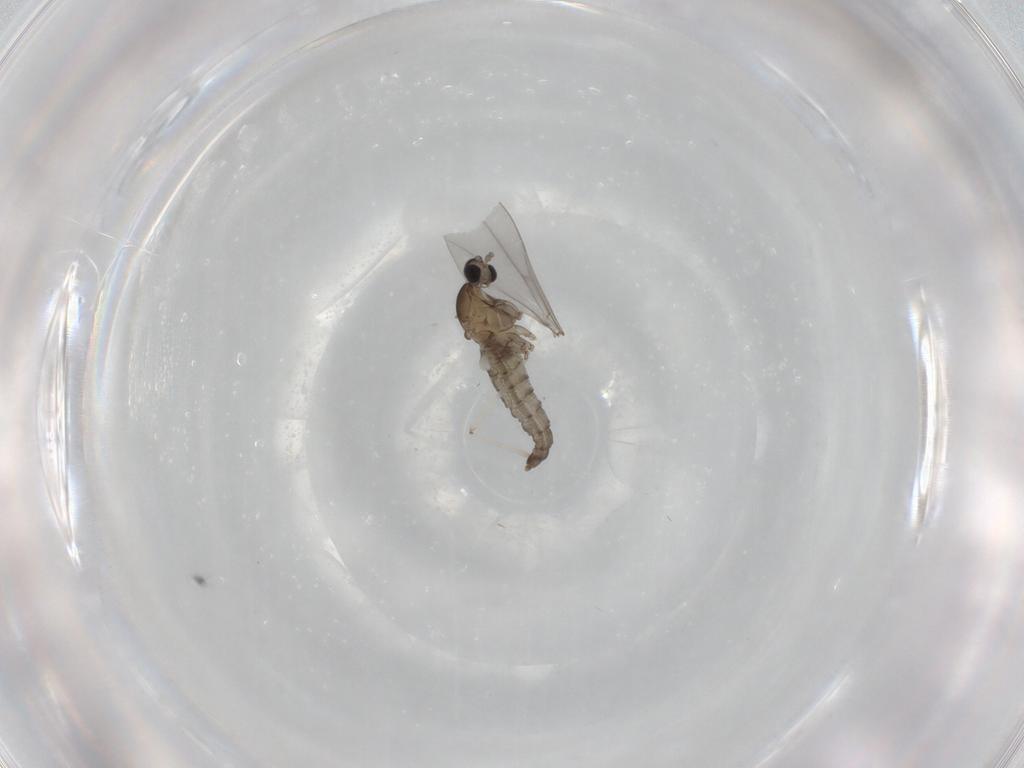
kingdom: Animalia
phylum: Arthropoda
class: Insecta
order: Diptera
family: Cecidomyiidae
